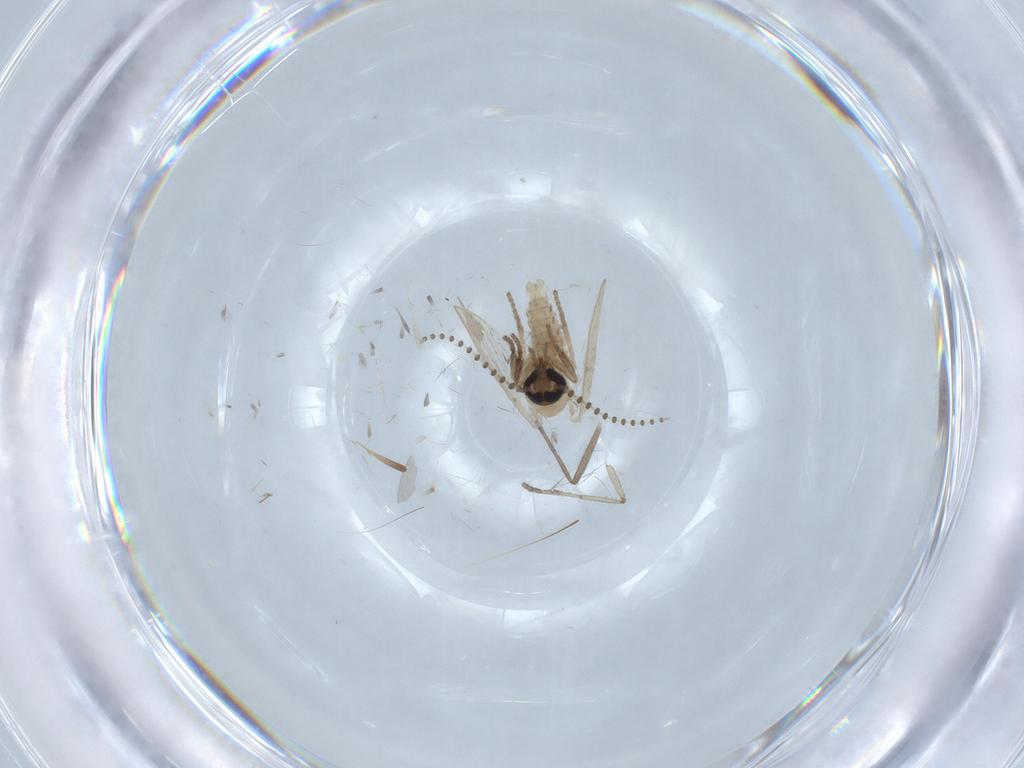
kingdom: Animalia
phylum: Arthropoda
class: Insecta
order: Diptera
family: Psychodidae
